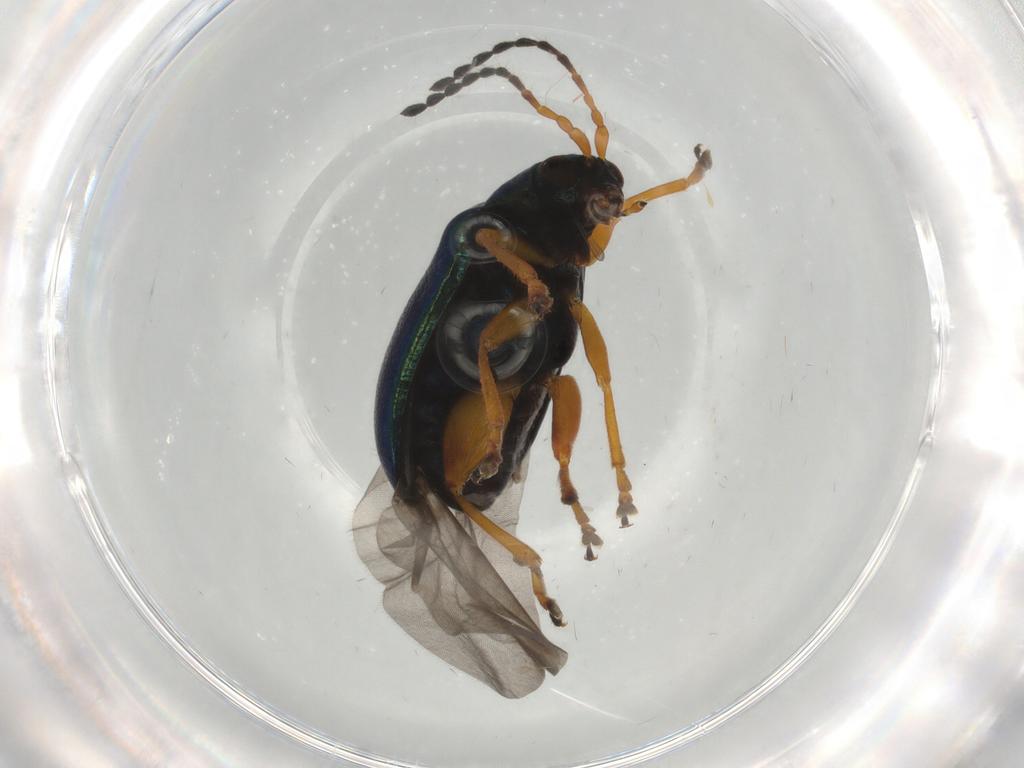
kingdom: Animalia
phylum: Arthropoda
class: Insecta
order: Coleoptera
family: Chrysomelidae
